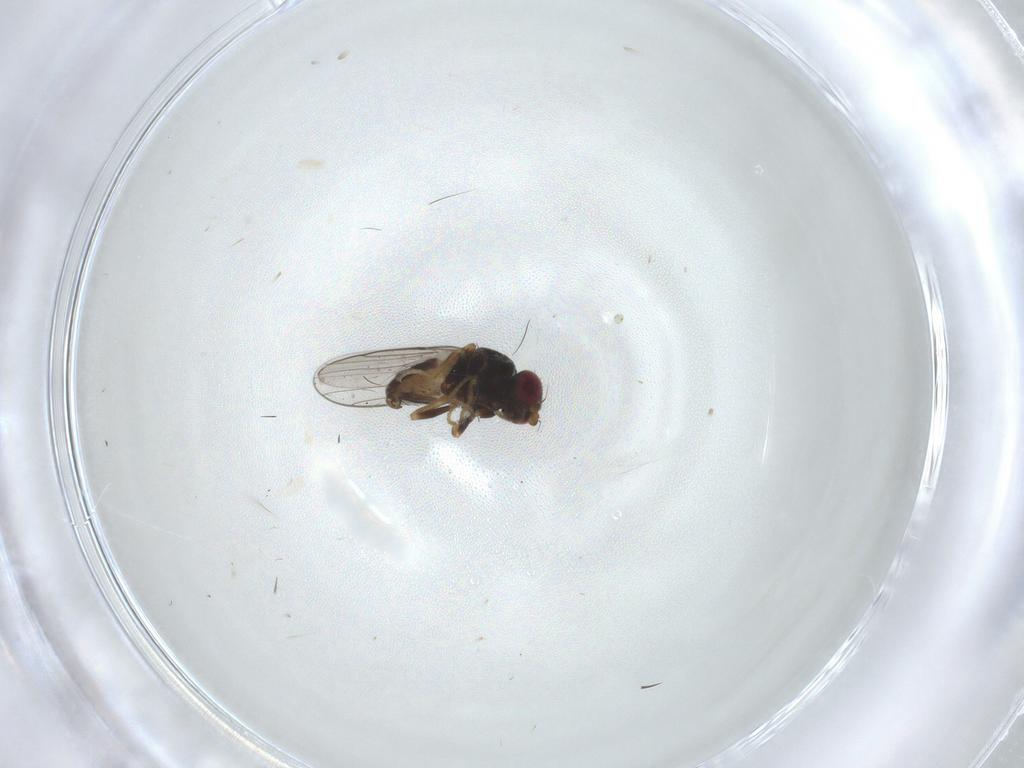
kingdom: Animalia
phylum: Arthropoda
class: Insecta
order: Diptera
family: Chloropidae
